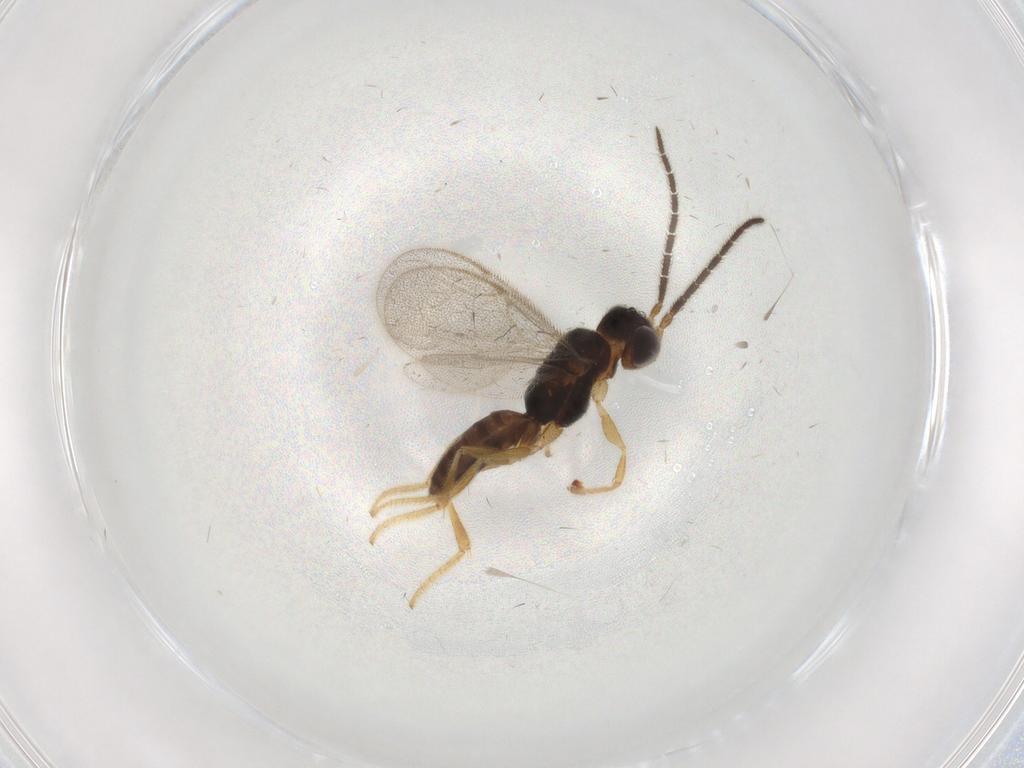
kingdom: Animalia
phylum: Arthropoda
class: Insecta
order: Hymenoptera
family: Dryinidae
